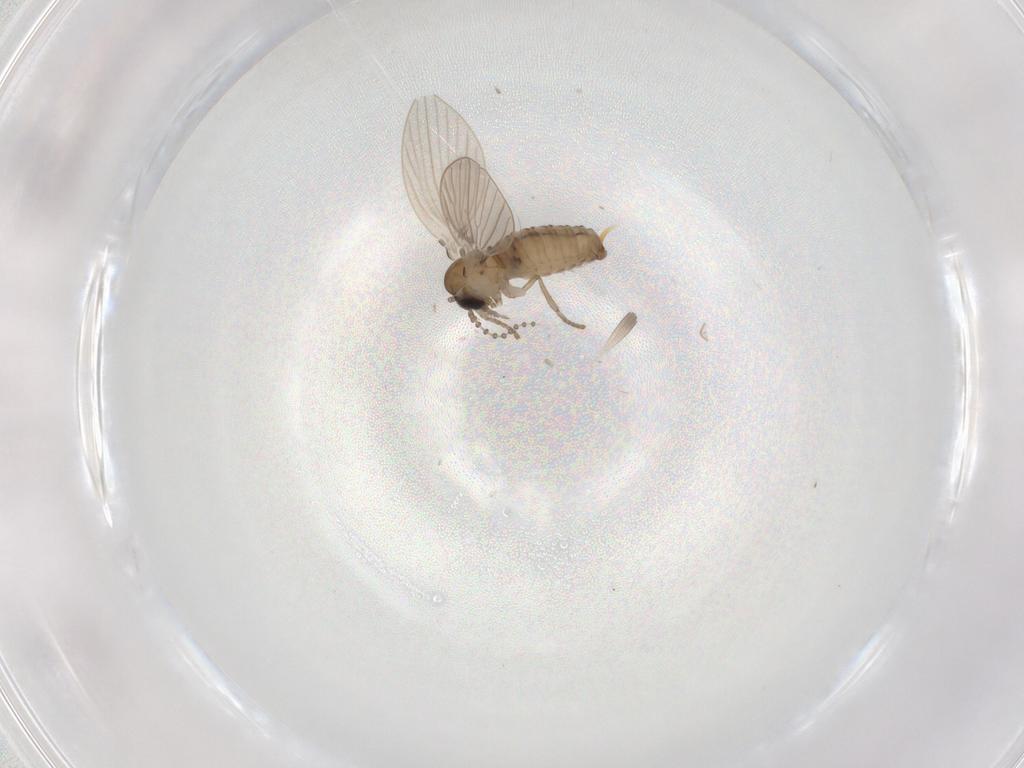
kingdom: Animalia
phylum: Arthropoda
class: Insecta
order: Diptera
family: Psychodidae
